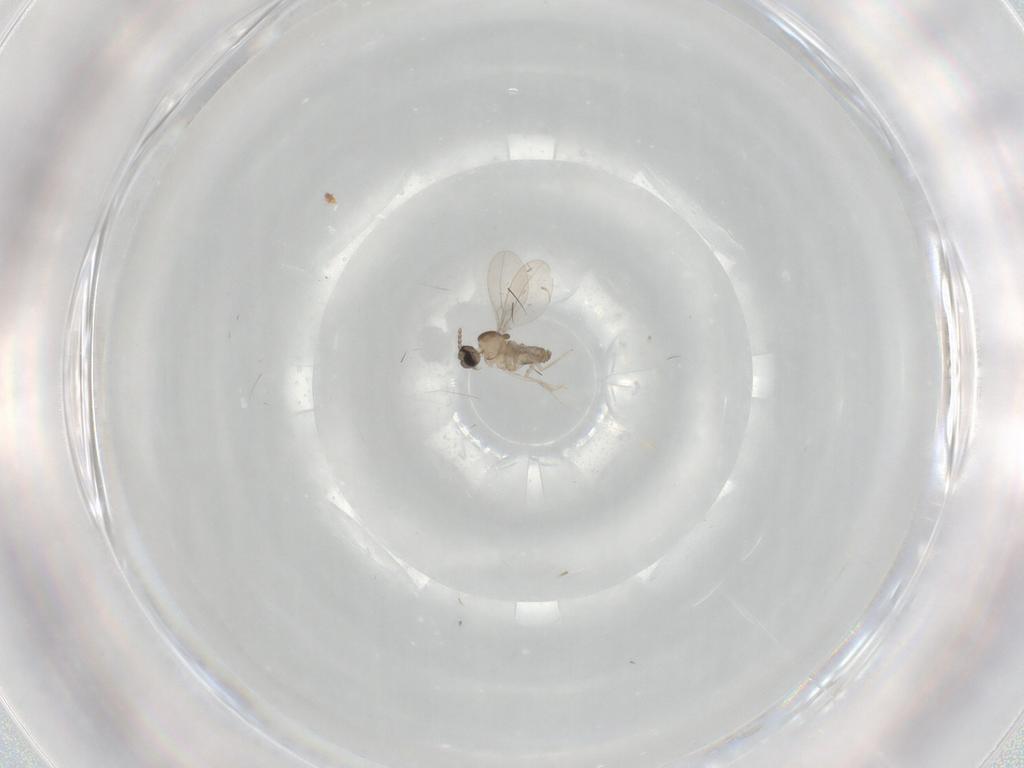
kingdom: Animalia
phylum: Arthropoda
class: Insecta
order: Diptera
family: Cecidomyiidae
